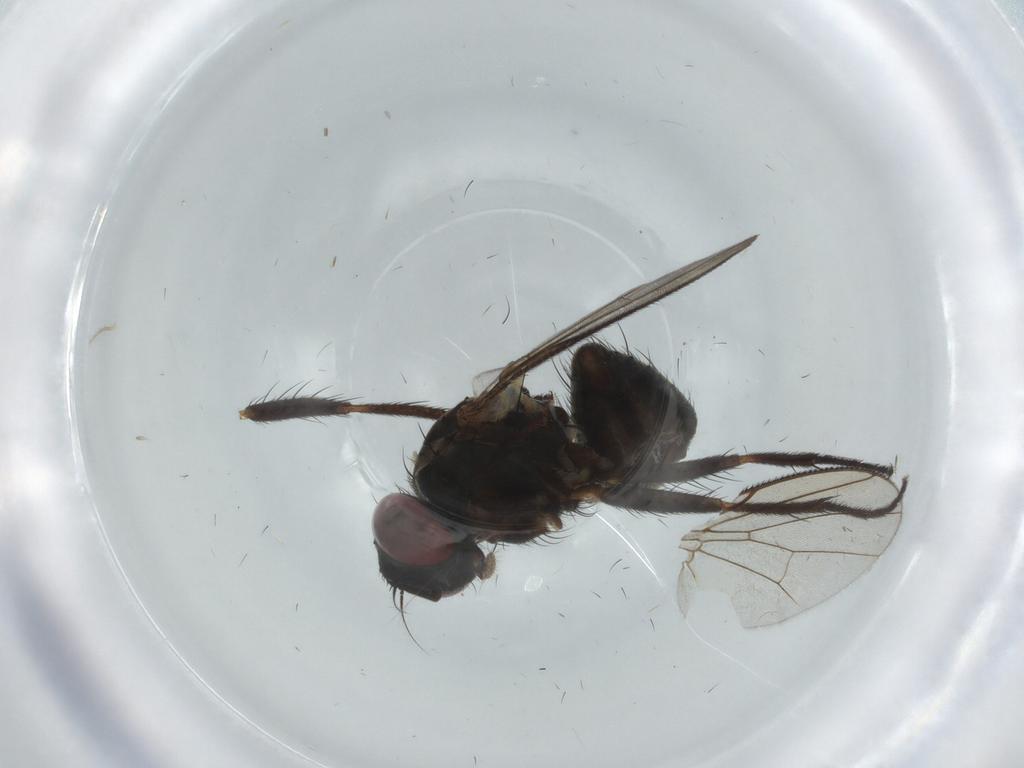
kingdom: Animalia
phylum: Arthropoda
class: Insecta
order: Diptera
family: Muscidae
